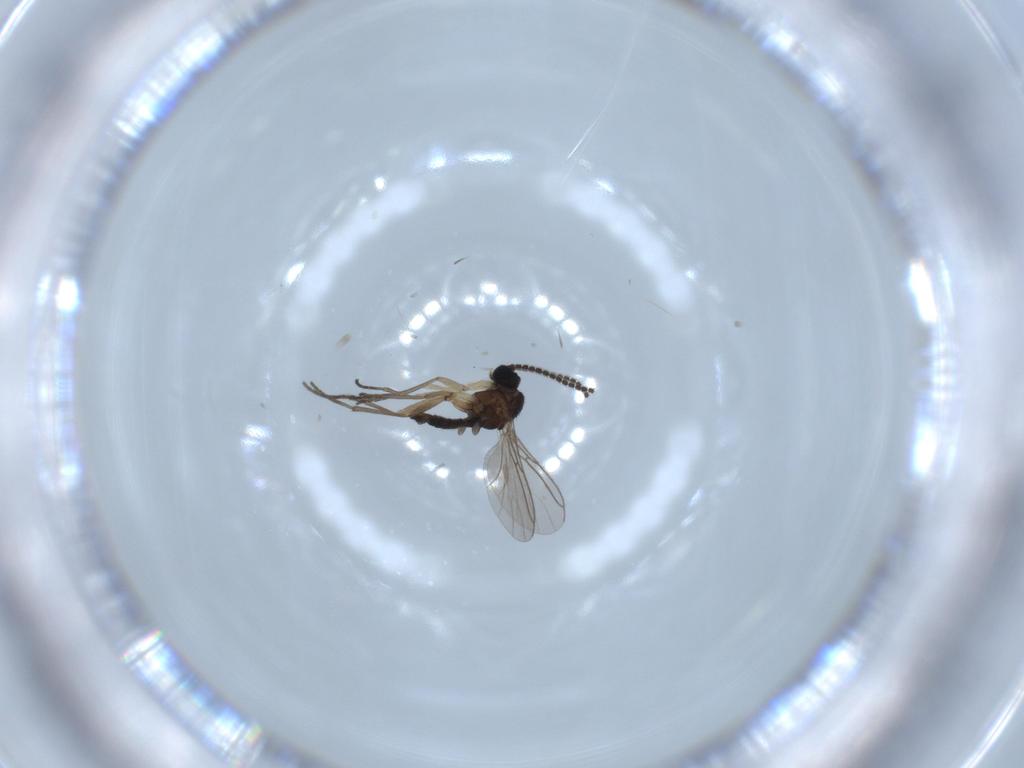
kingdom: Animalia
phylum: Arthropoda
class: Insecta
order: Diptera
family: Sciaridae
